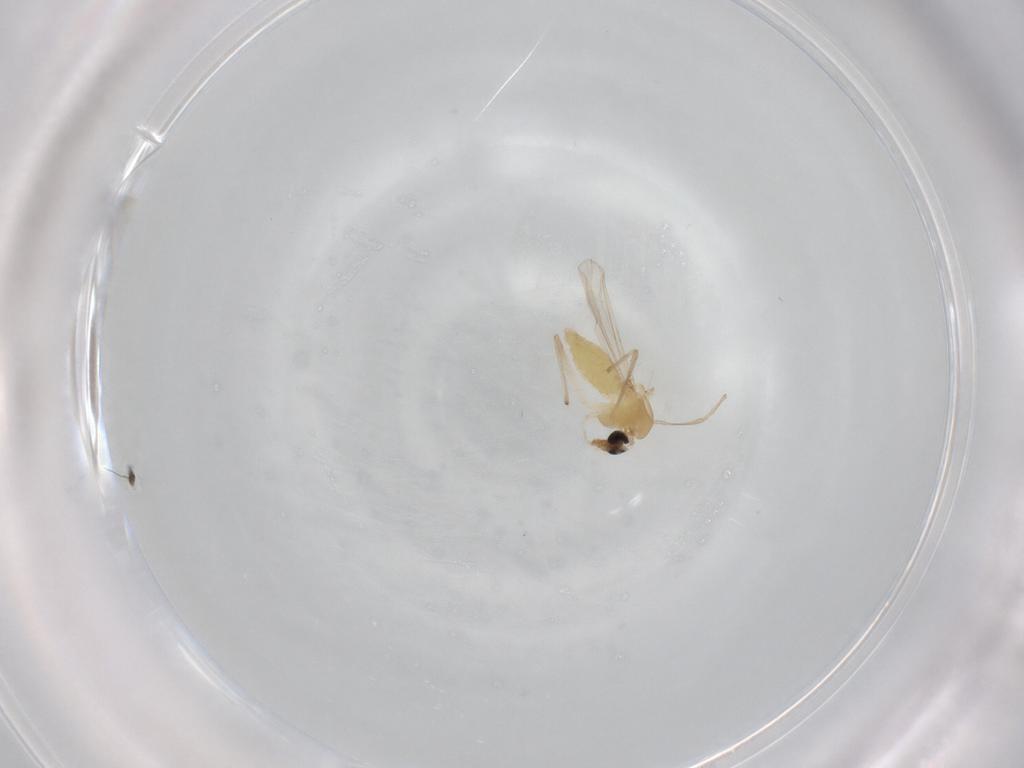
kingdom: Animalia
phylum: Arthropoda
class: Insecta
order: Diptera
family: Chironomidae
